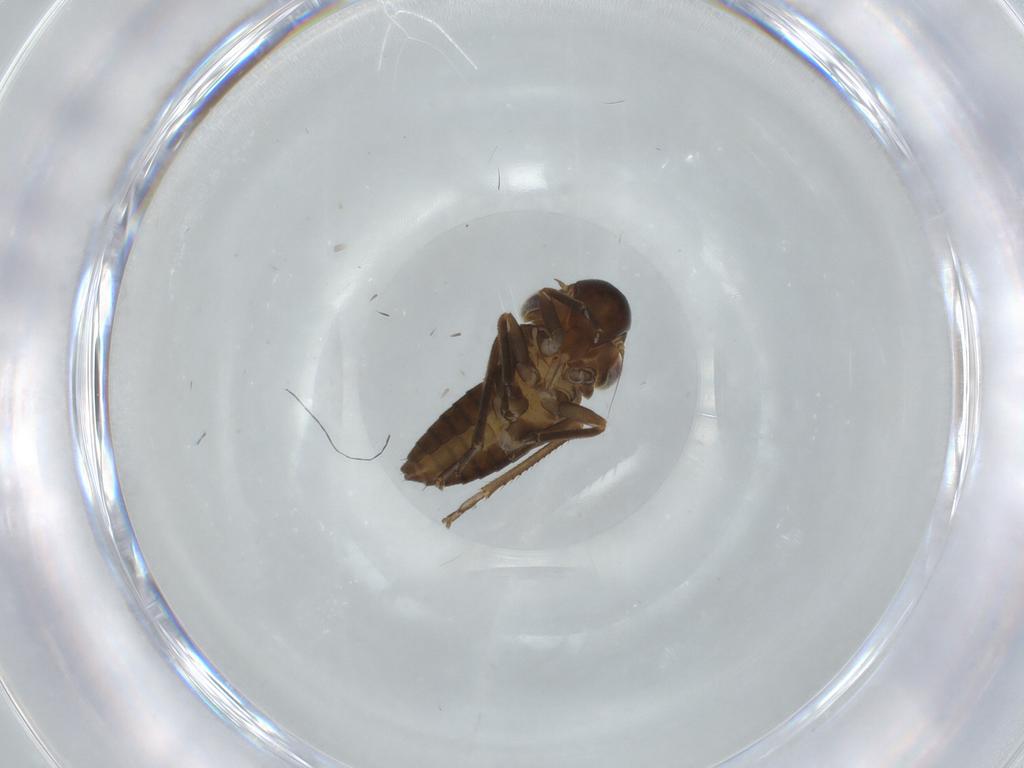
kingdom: Animalia
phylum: Arthropoda
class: Insecta
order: Hemiptera
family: Cicadellidae
